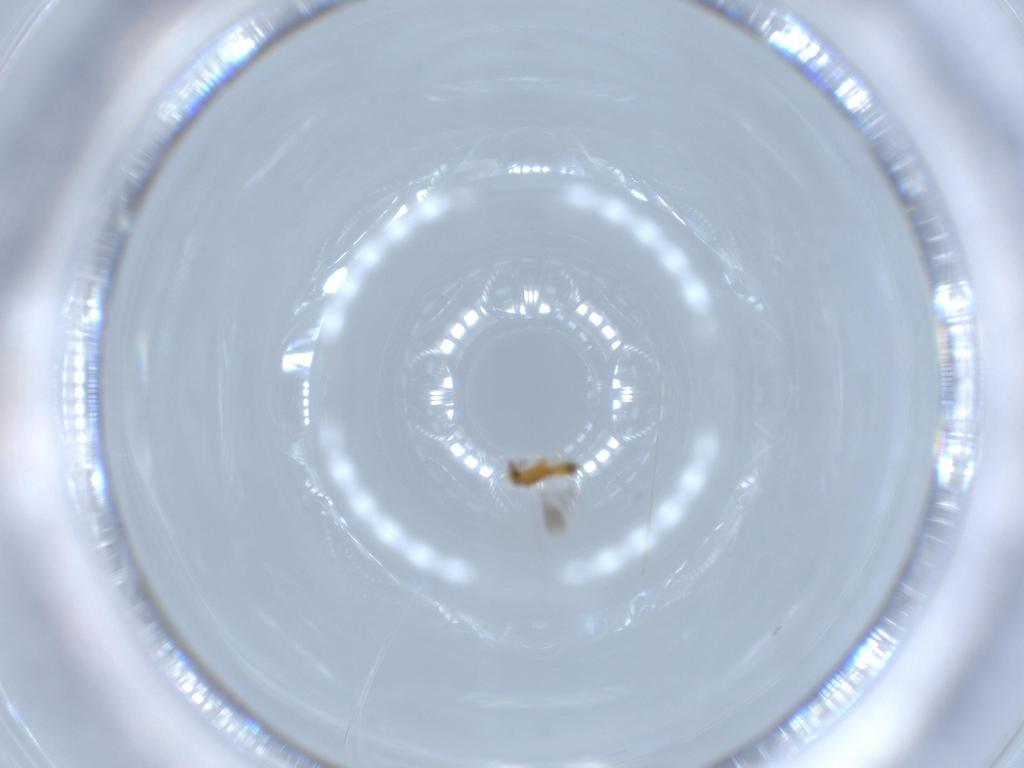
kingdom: Animalia
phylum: Arthropoda
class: Insecta
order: Hymenoptera
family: Platygastridae
